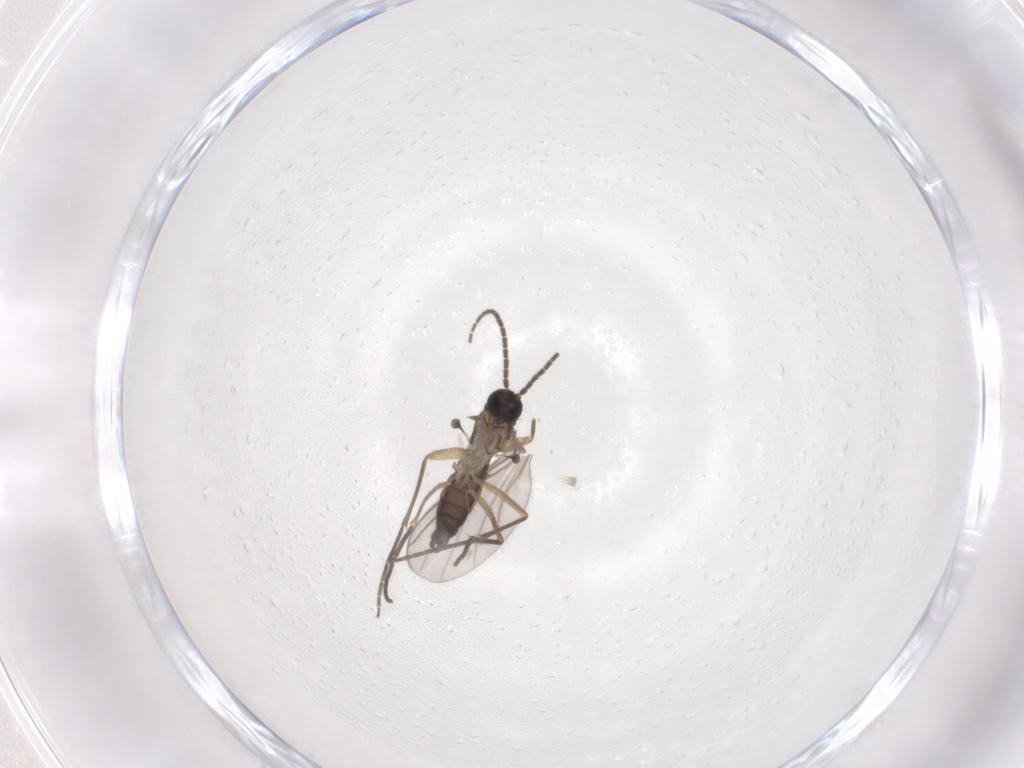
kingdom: Animalia
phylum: Arthropoda
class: Insecta
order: Diptera
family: Sciaridae
